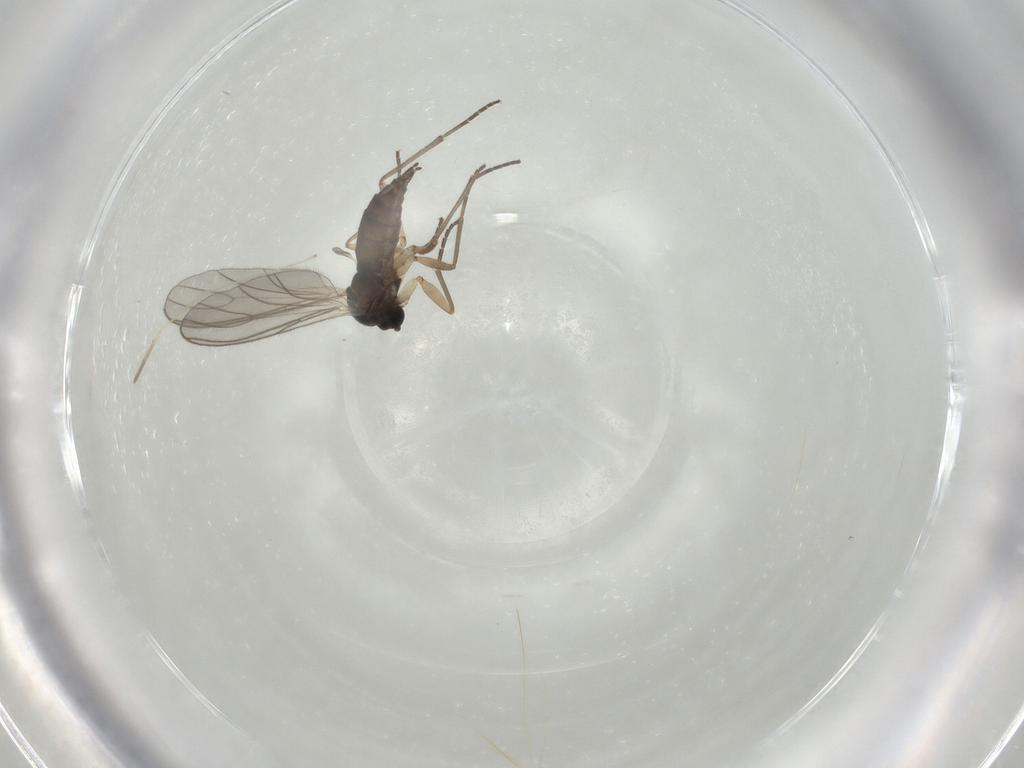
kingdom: Animalia
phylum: Arthropoda
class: Insecta
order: Diptera
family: Sciaridae
